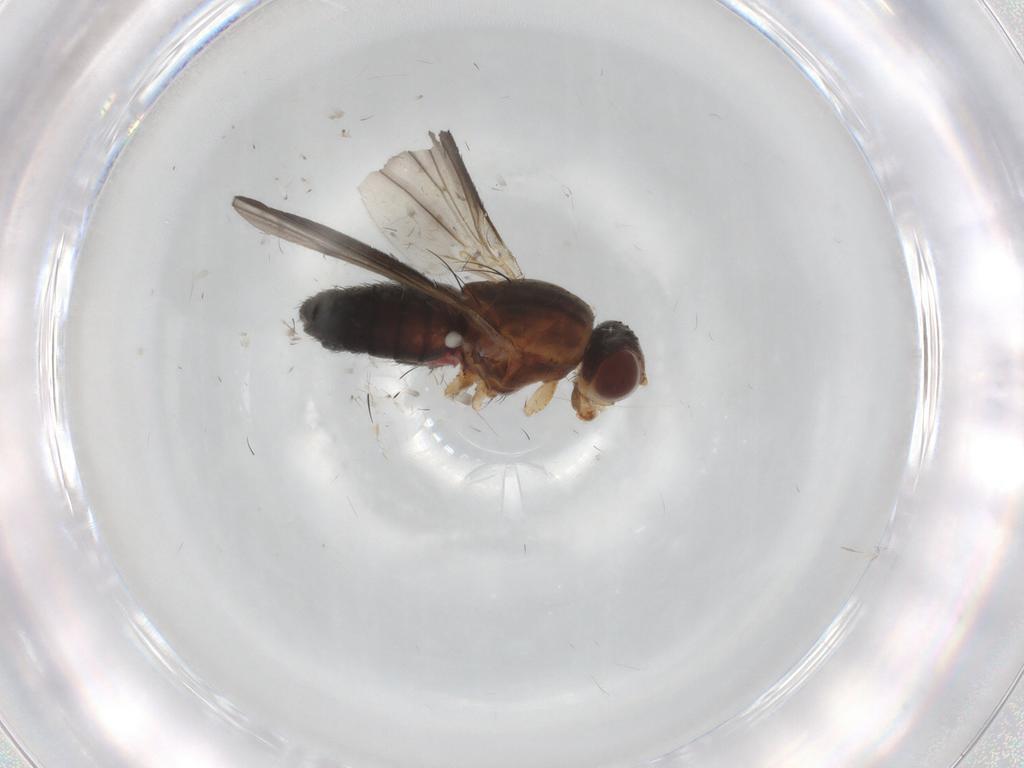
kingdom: Animalia
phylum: Arthropoda
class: Insecta
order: Diptera
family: Heleomyzidae
